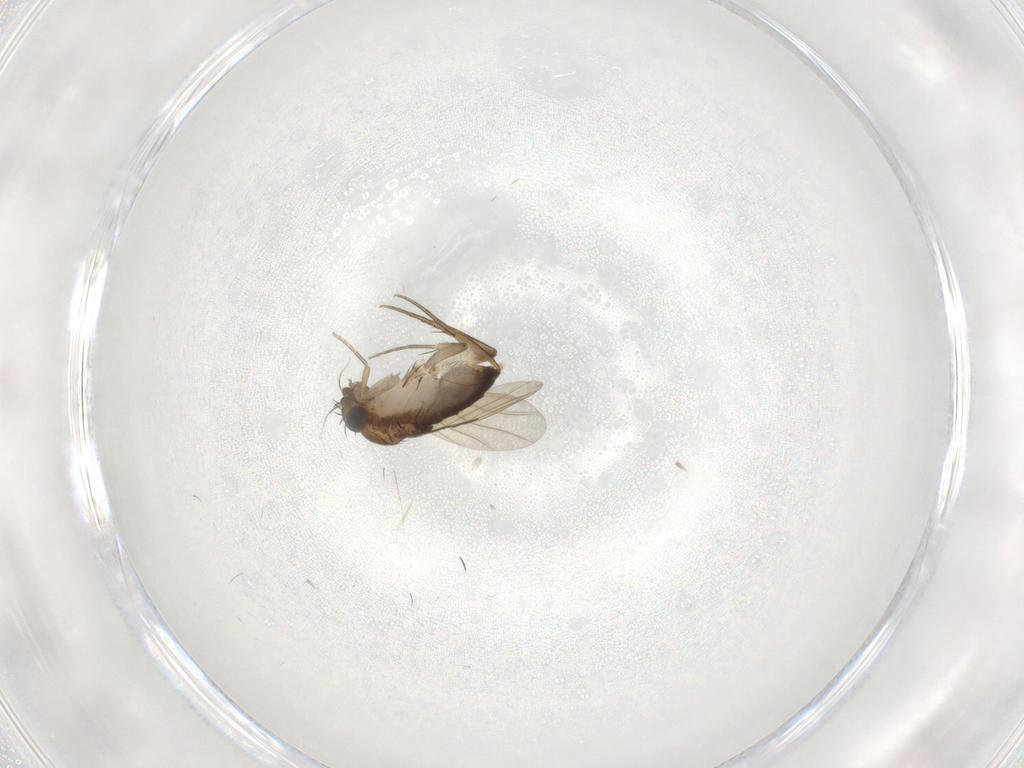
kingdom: Animalia
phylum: Arthropoda
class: Insecta
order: Diptera
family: Phoridae
